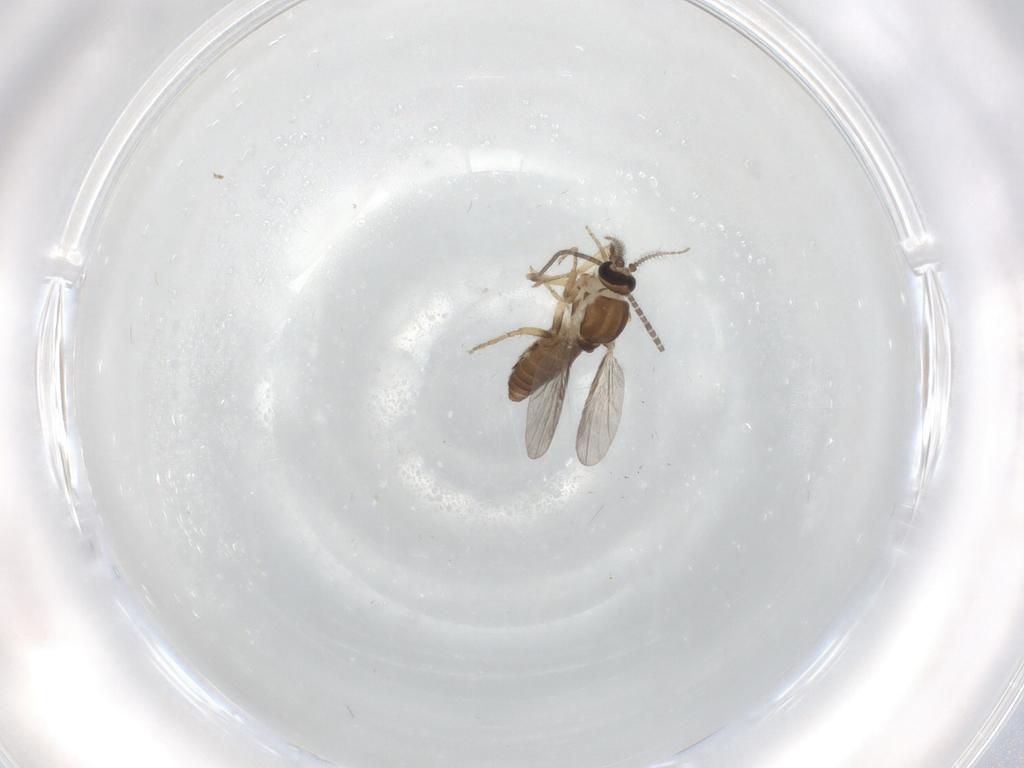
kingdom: Animalia
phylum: Arthropoda
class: Insecta
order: Diptera
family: Ceratopogonidae
